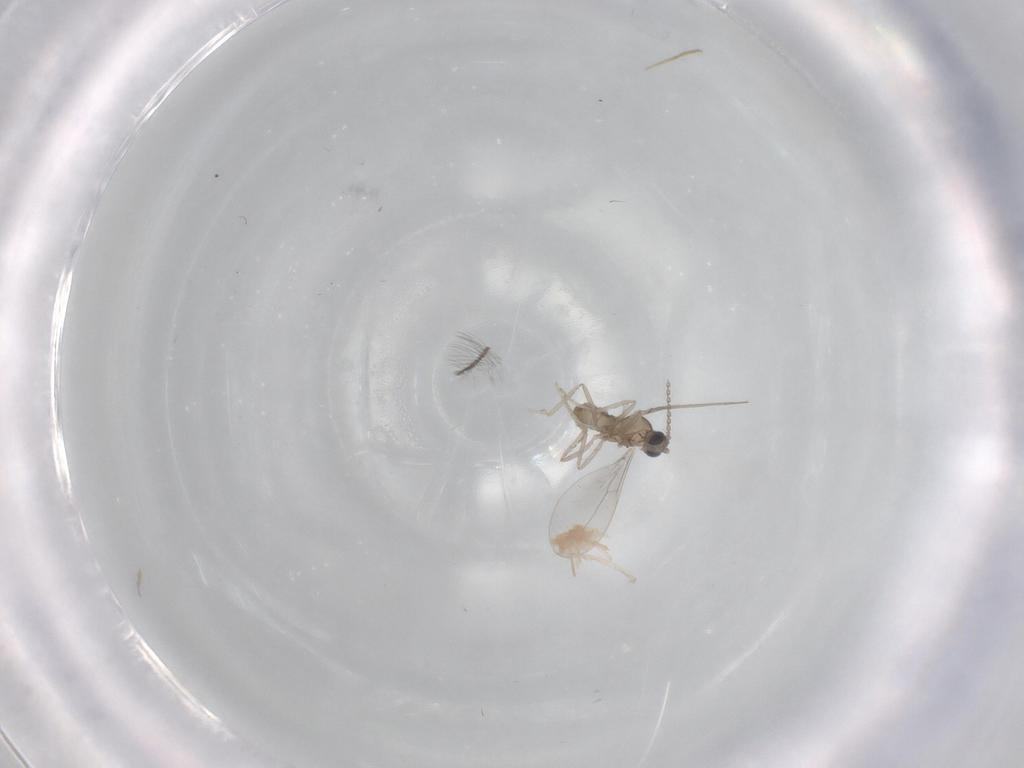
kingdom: Animalia
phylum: Arthropoda
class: Insecta
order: Diptera
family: Cecidomyiidae
